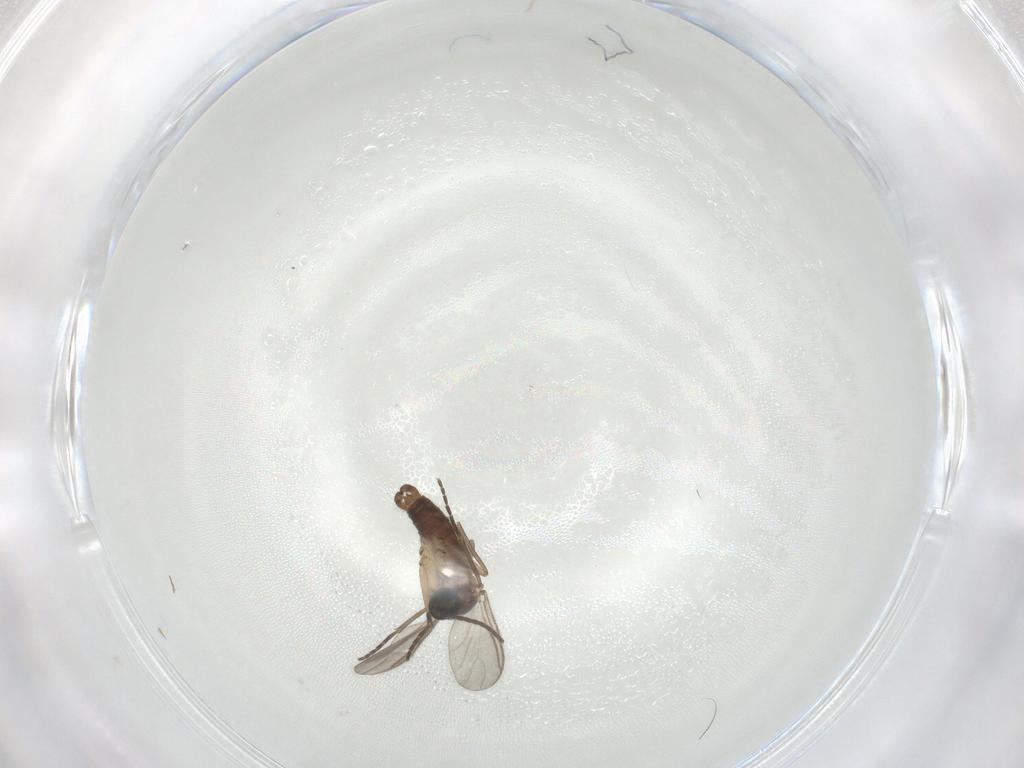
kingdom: Animalia
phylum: Arthropoda
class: Insecta
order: Diptera
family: Sciaridae
